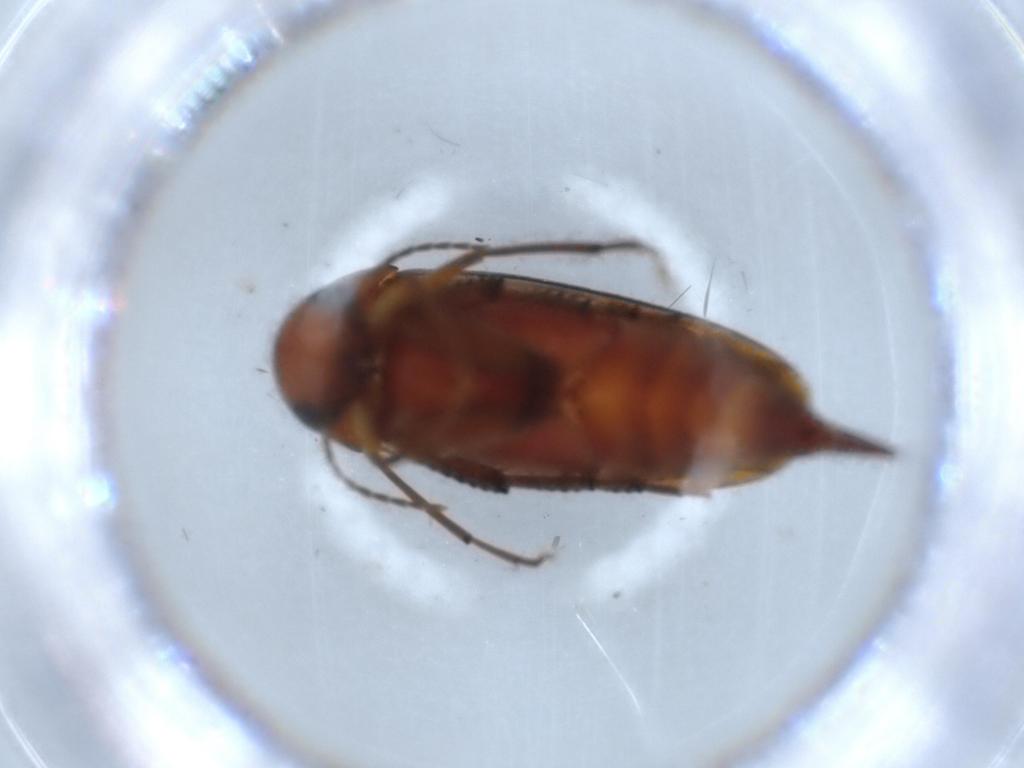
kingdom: Animalia
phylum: Arthropoda
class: Insecta
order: Coleoptera
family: Mordellidae
